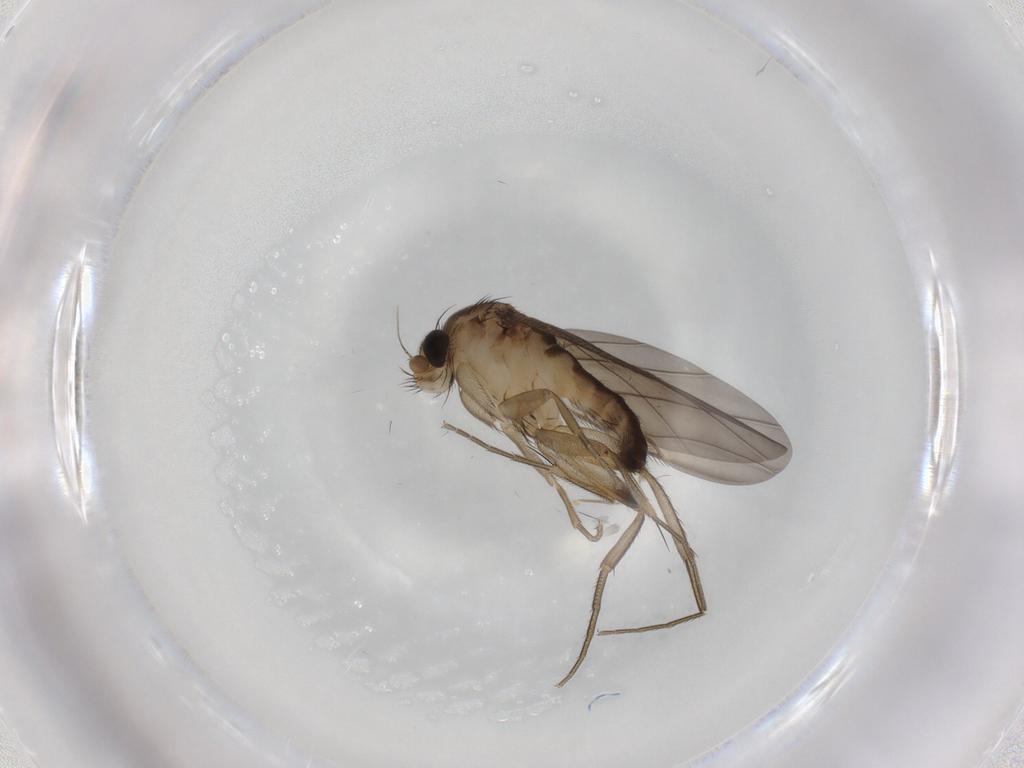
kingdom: Animalia
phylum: Arthropoda
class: Insecta
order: Diptera
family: Phoridae
